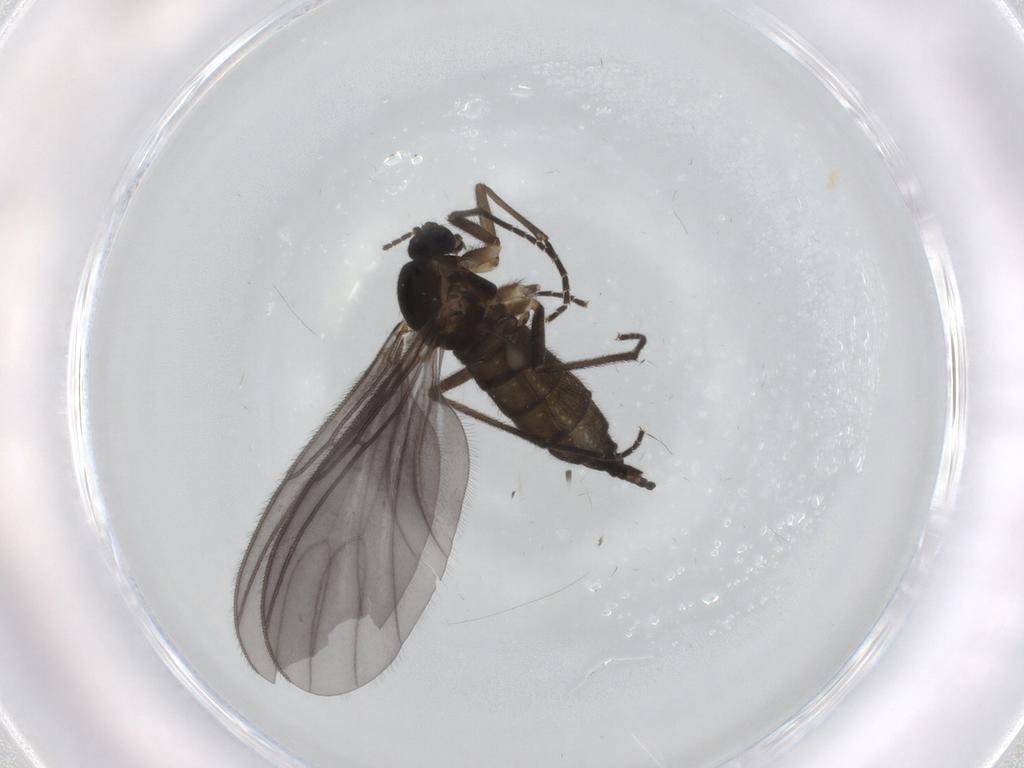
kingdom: Animalia
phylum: Arthropoda
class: Insecta
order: Diptera
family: Sciaridae
